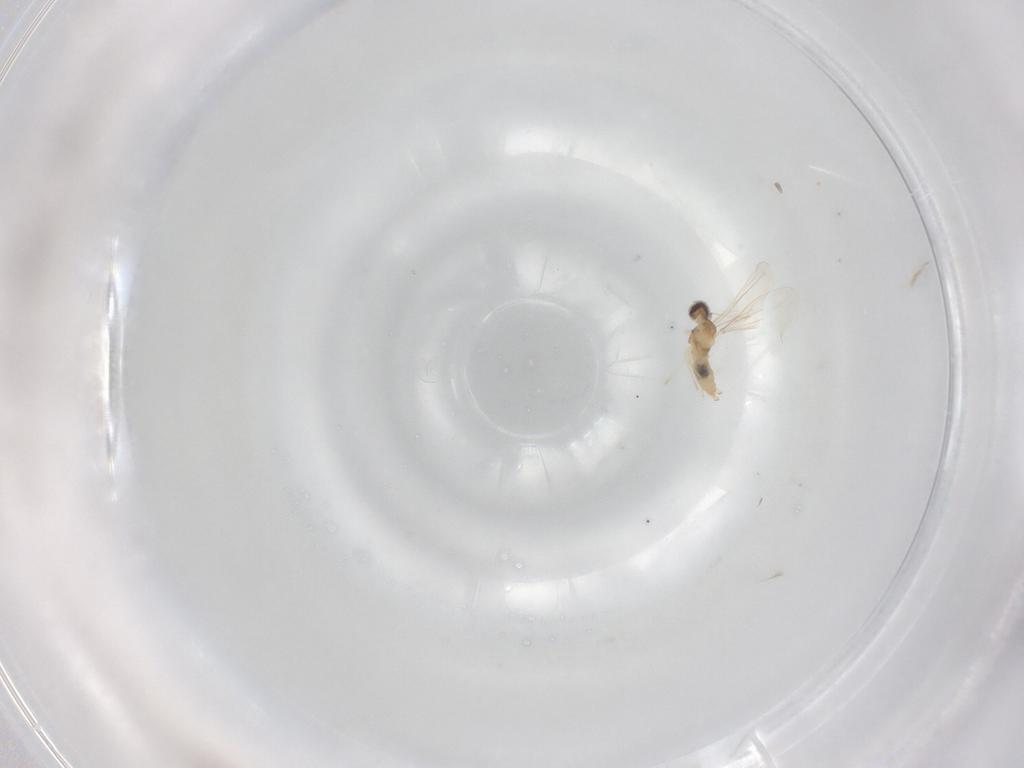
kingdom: Animalia
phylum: Arthropoda
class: Insecta
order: Diptera
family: Cecidomyiidae
